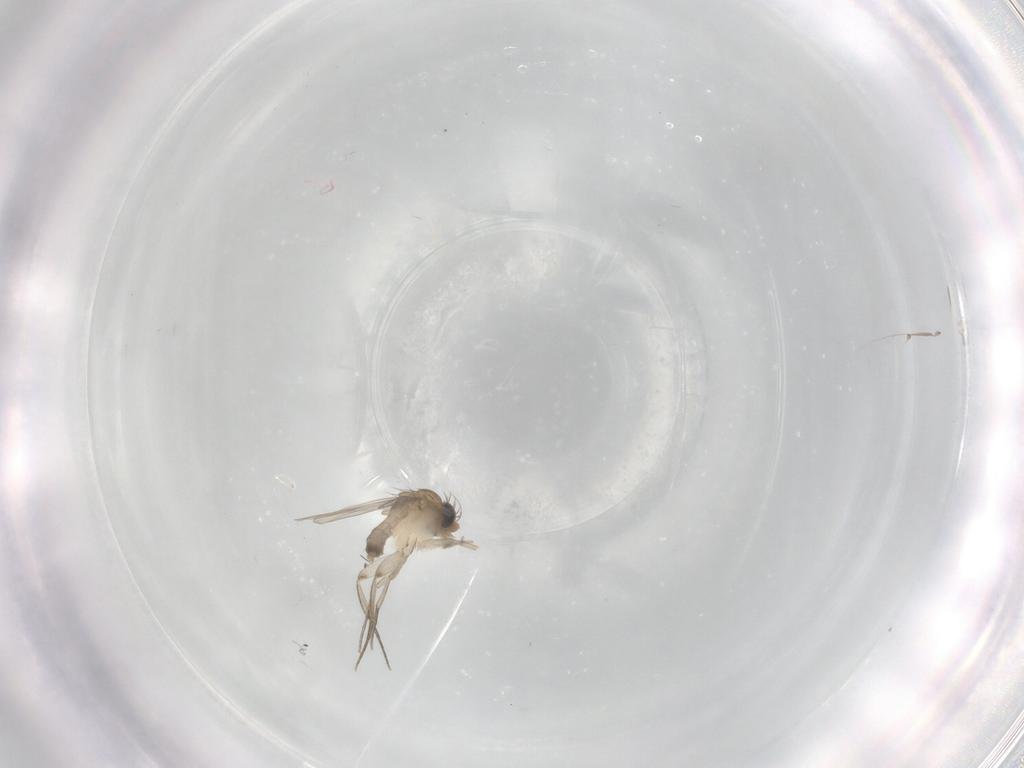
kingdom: Animalia
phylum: Arthropoda
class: Insecta
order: Diptera
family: Phoridae
